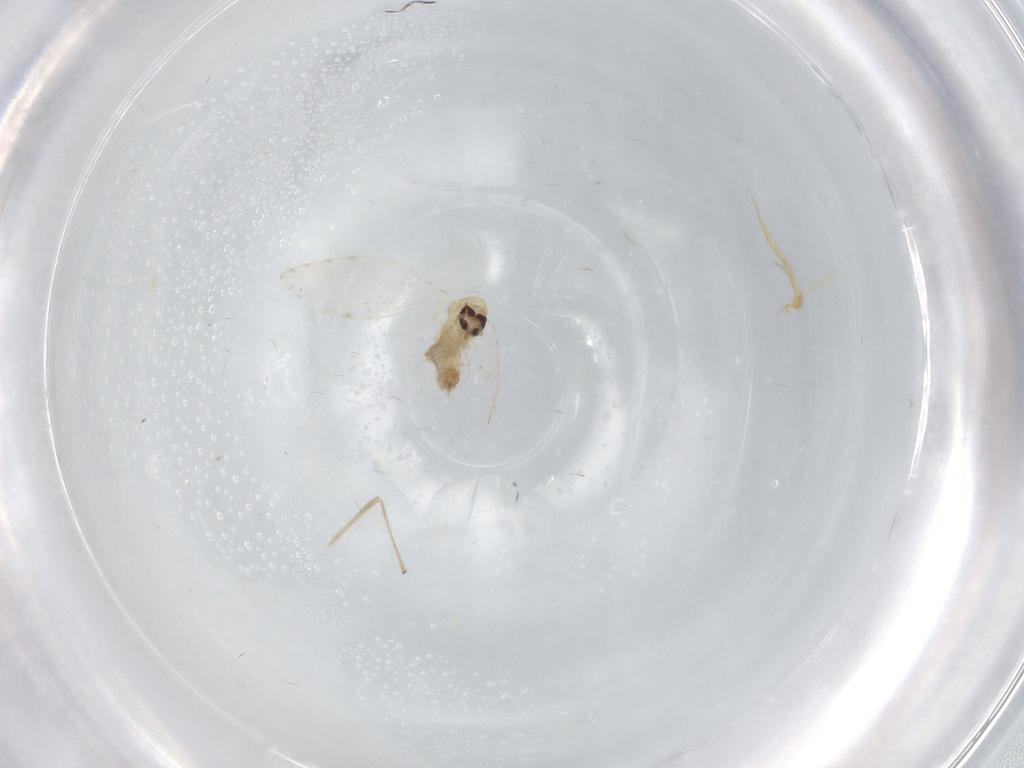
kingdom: Animalia
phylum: Arthropoda
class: Insecta
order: Diptera
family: Psychodidae
